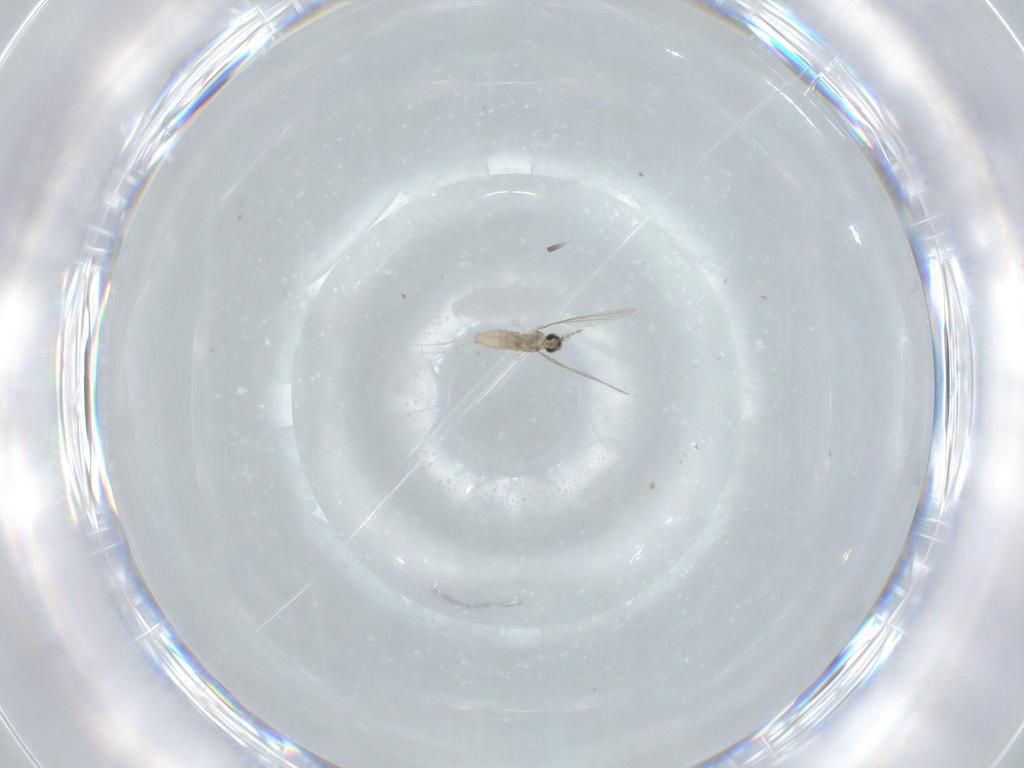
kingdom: Animalia
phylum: Arthropoda
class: Insecta
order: Diptera
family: Cecidomyiidae
